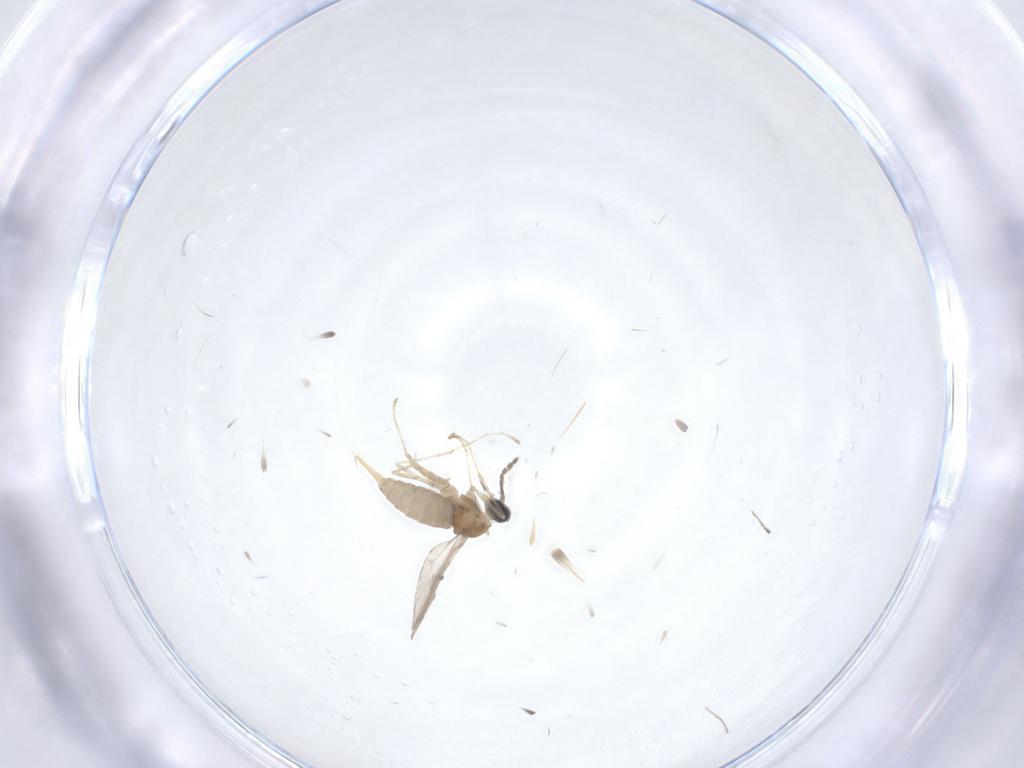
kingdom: Animalia
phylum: Arthropoda
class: Insecta
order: Diptera
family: Cecidomyiidae
